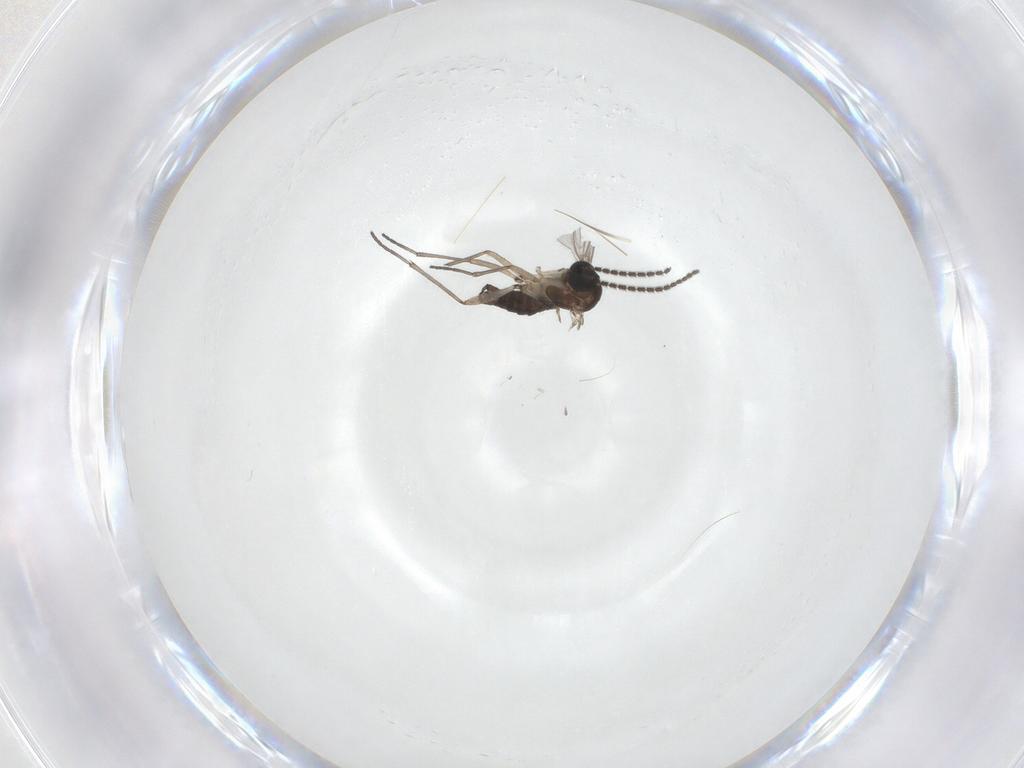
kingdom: Animalia
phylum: Arthropoda
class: Insecta
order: Diptera
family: Sciaridae
